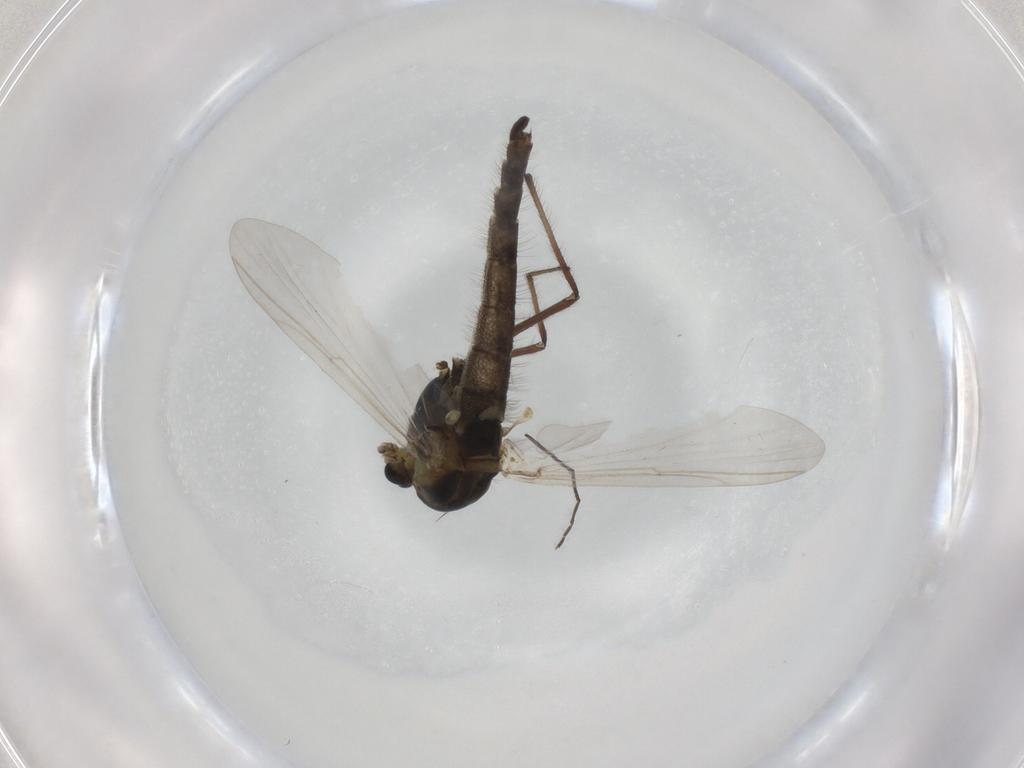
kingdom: Animalia
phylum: Arthropoda
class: Insecta
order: Diptera
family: Chironomidae
